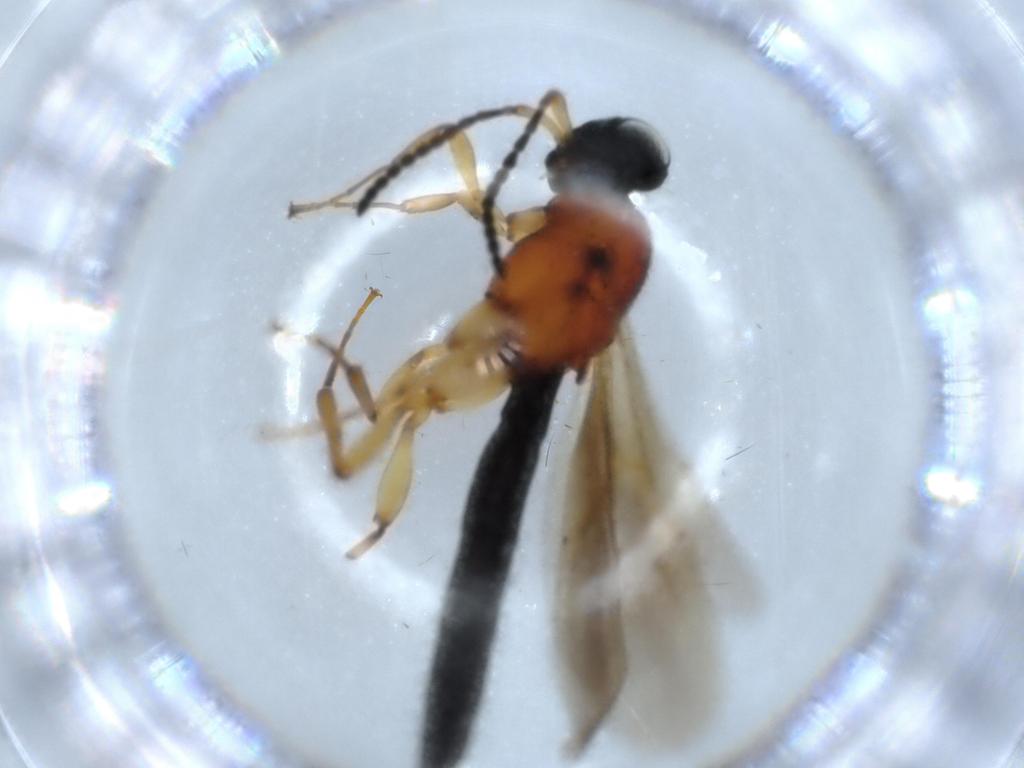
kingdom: Animalia
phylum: Arthropoda
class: Insecta
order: Hymenoptera
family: Scelionidae
